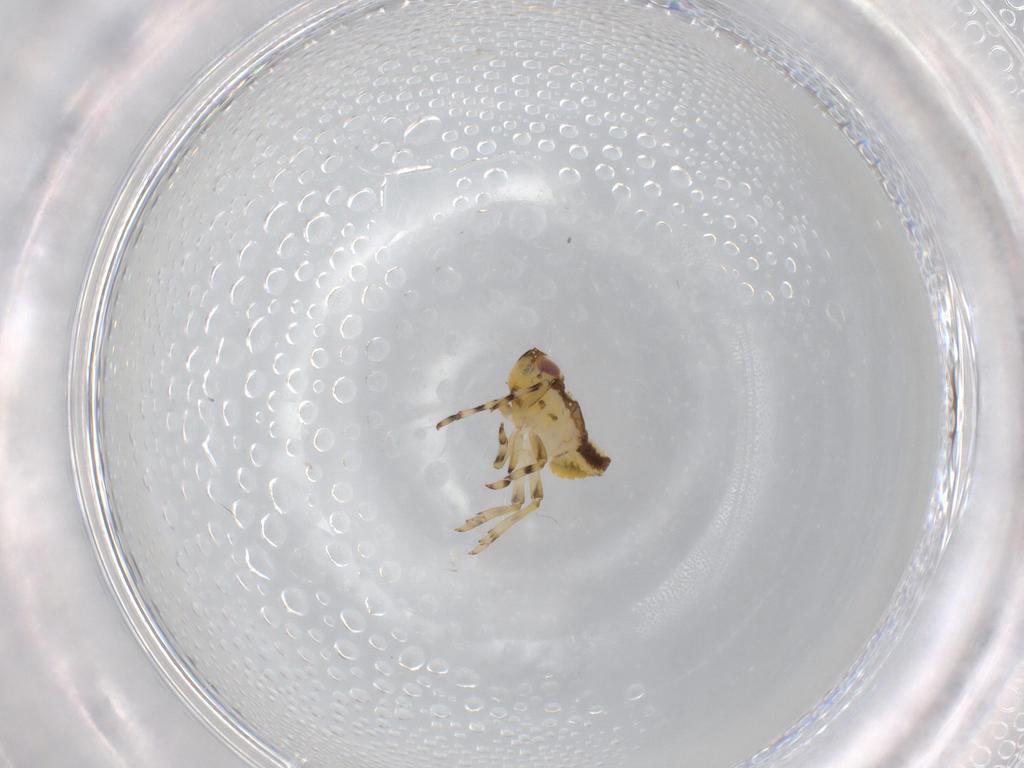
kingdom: Animalia
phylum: Arthropoda
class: Insecta
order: Hemiptera
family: Issidae
